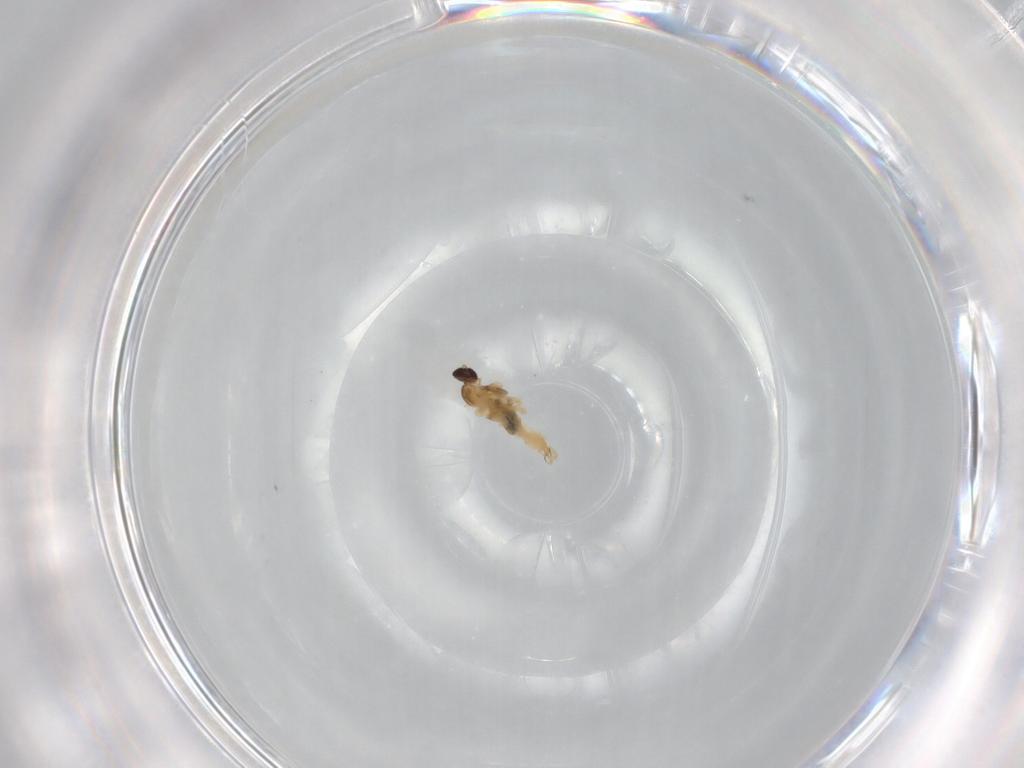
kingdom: Animalia
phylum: Arthropoda
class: Insecta
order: Diptera
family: Cecidomyiidae
